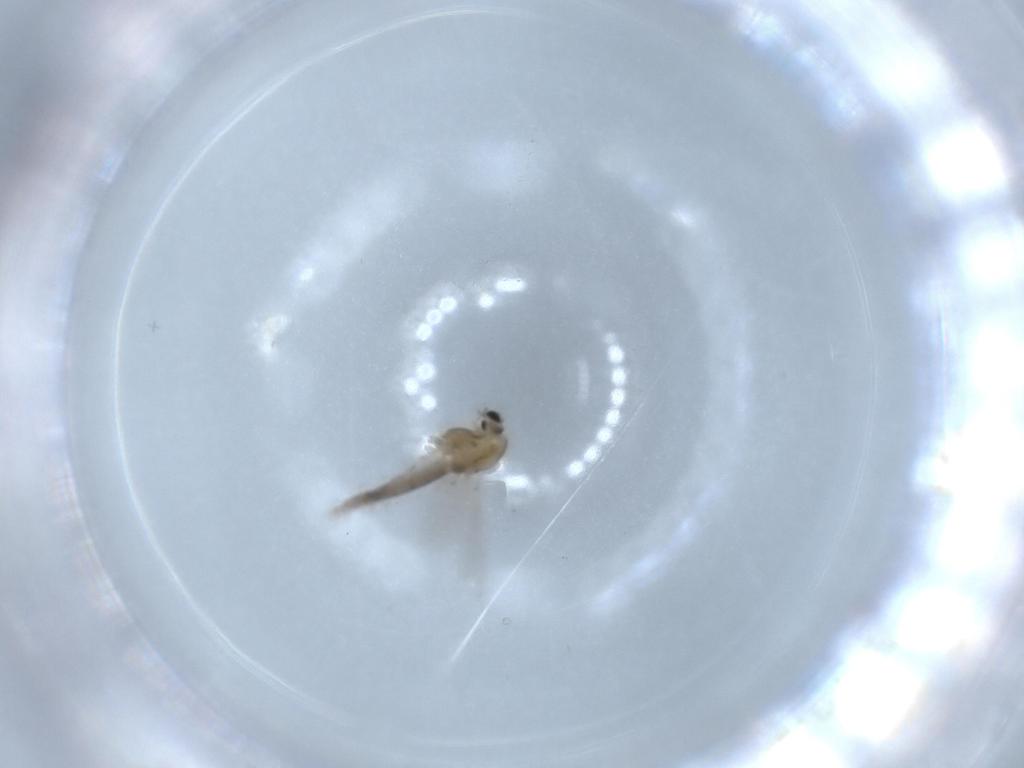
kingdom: Animalia
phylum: Arthropoda
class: Insecta
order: Diptera
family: Chironomidae
